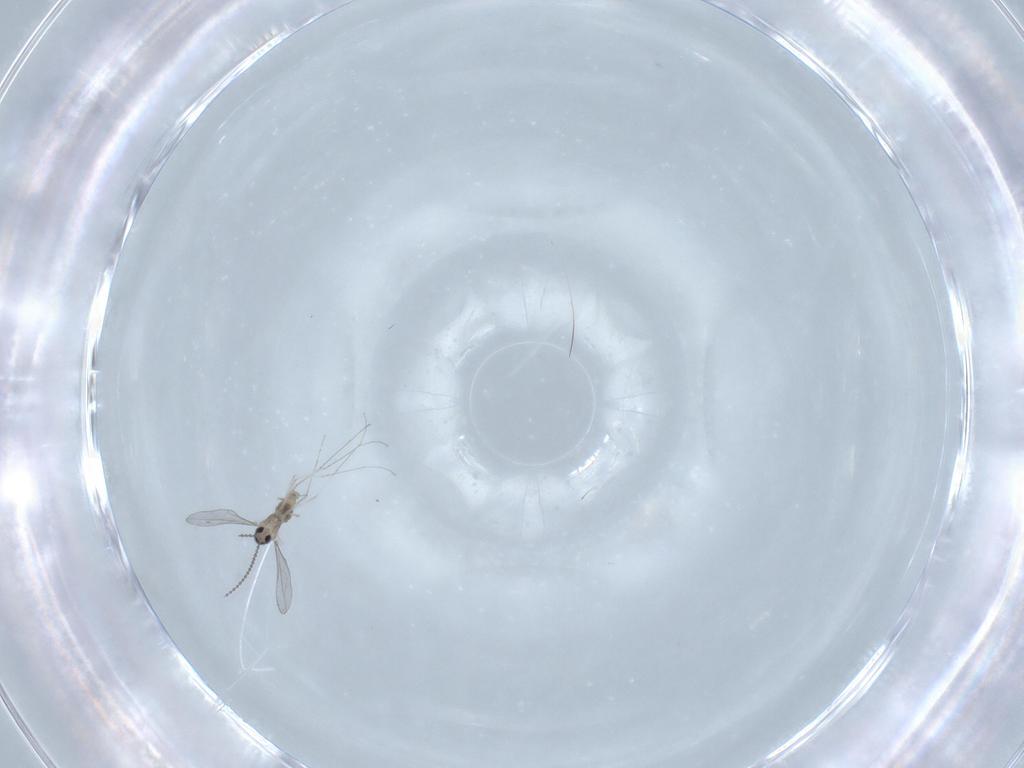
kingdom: Animalia
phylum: Arthropoda
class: Insecta
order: Diptera
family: Cecidomyiidae
